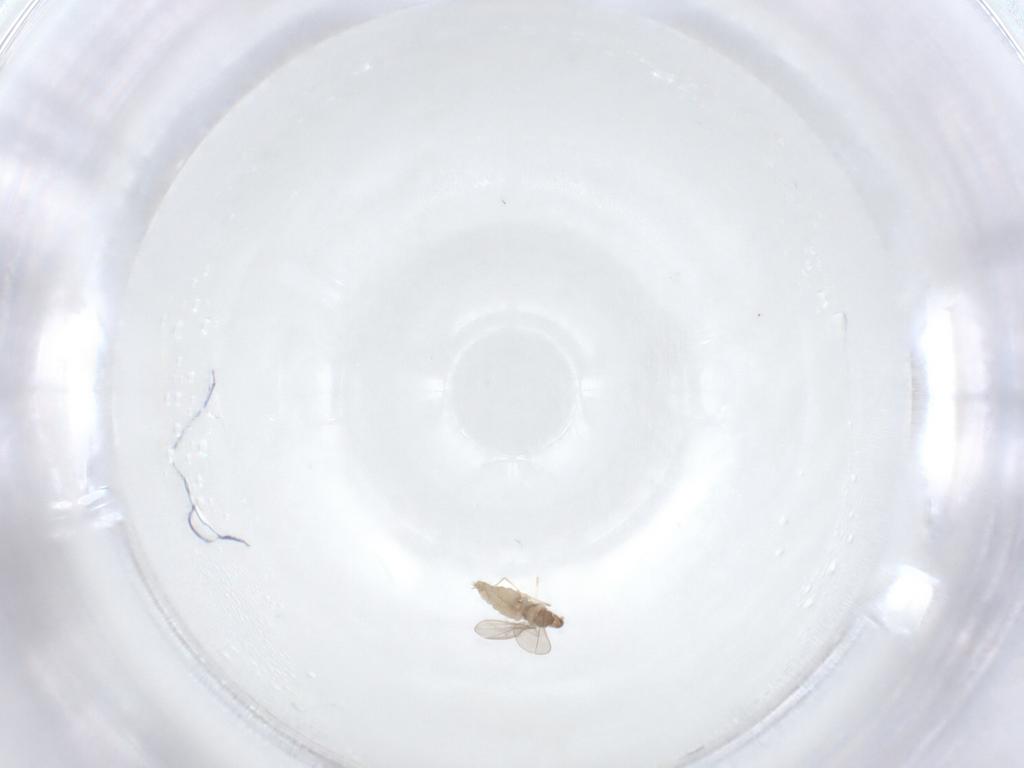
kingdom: Animalia
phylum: Arthropoda
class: Insecta
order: Diptera
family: Cecidomyiidae
